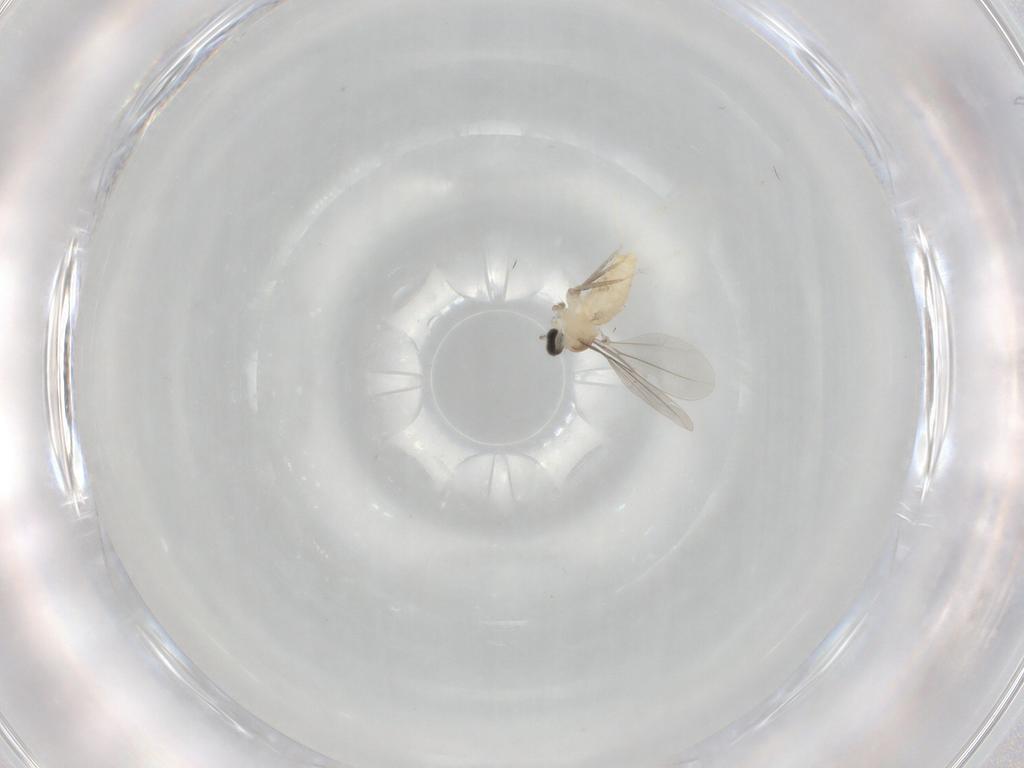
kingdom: Animalia
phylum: Arthropoda
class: Insecta
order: Diptera
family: Cecidomyiidae
